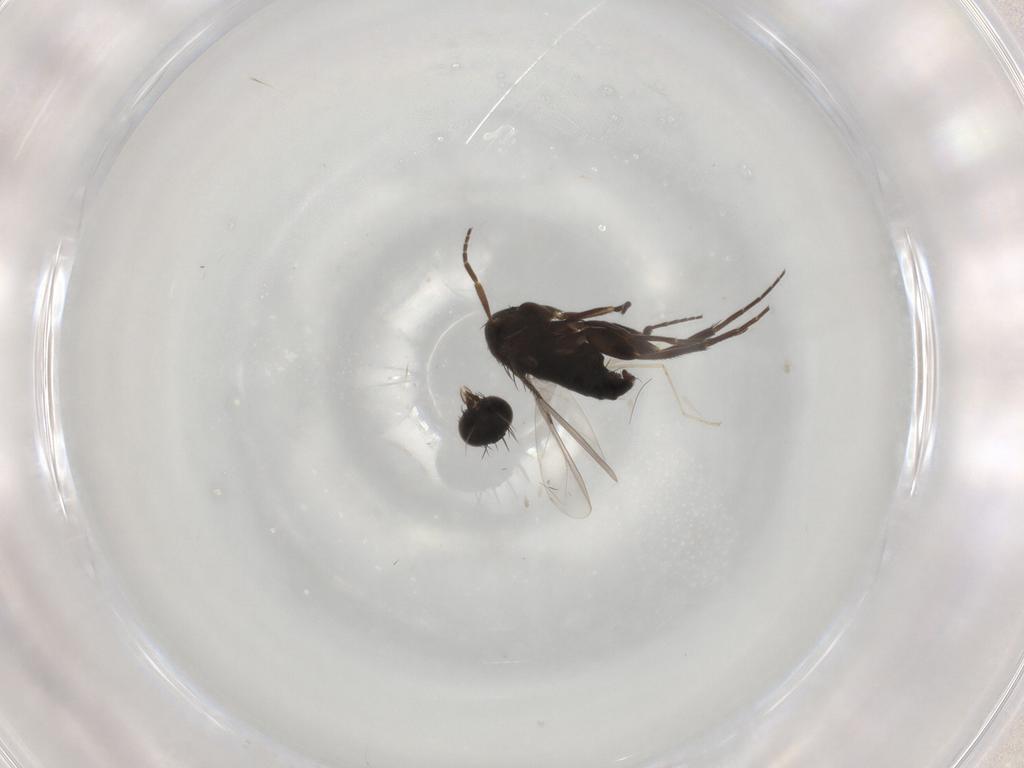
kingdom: Animalia
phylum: Arthropoda
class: Insecta
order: Diptera
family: Phoridae
